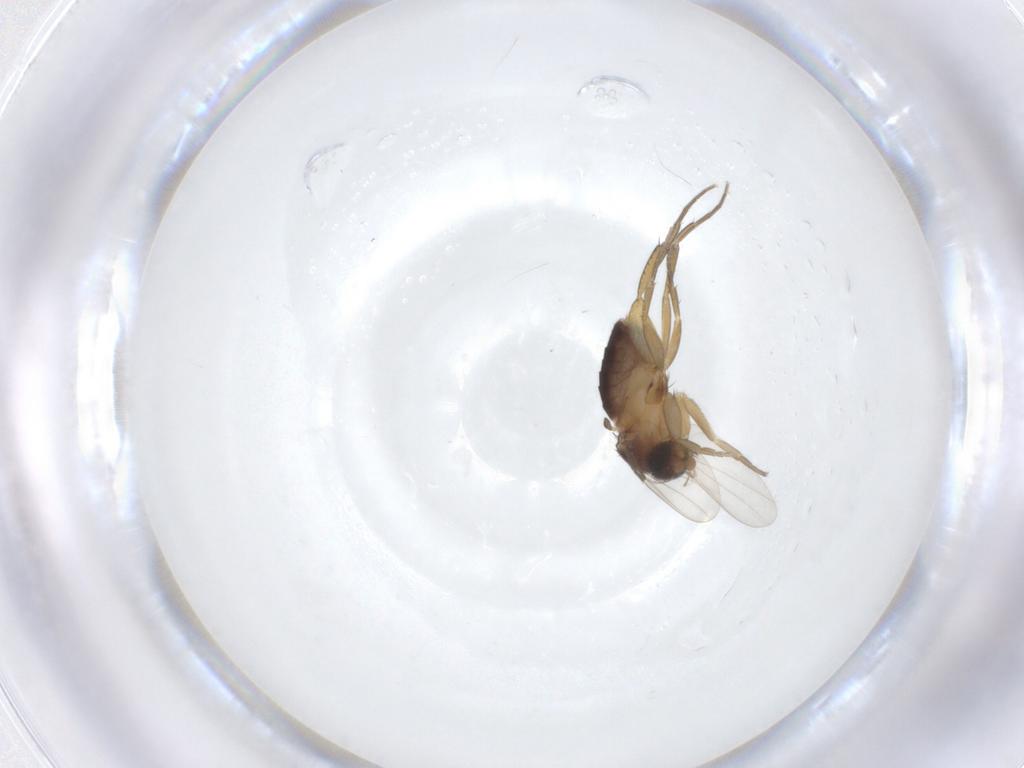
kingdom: Animalia
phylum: Arthropoda
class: Insecta
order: Diptera
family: Phoridae
